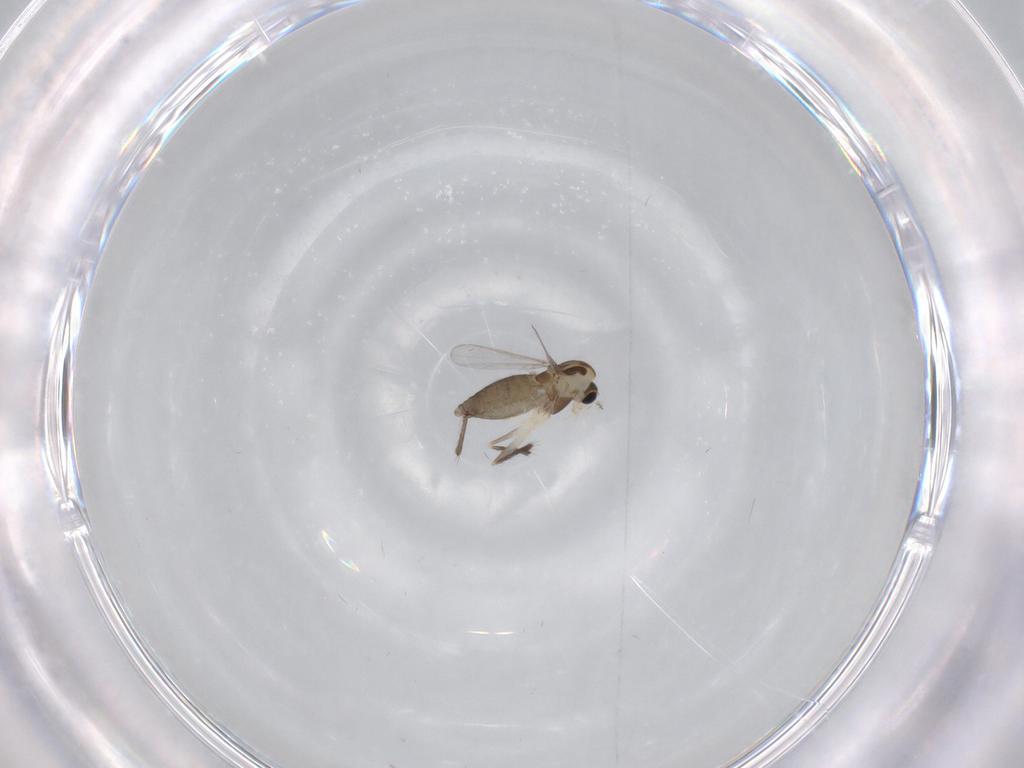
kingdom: Animalia
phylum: Arthropoda
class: Insecta
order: Diptera
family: Chironomidae
